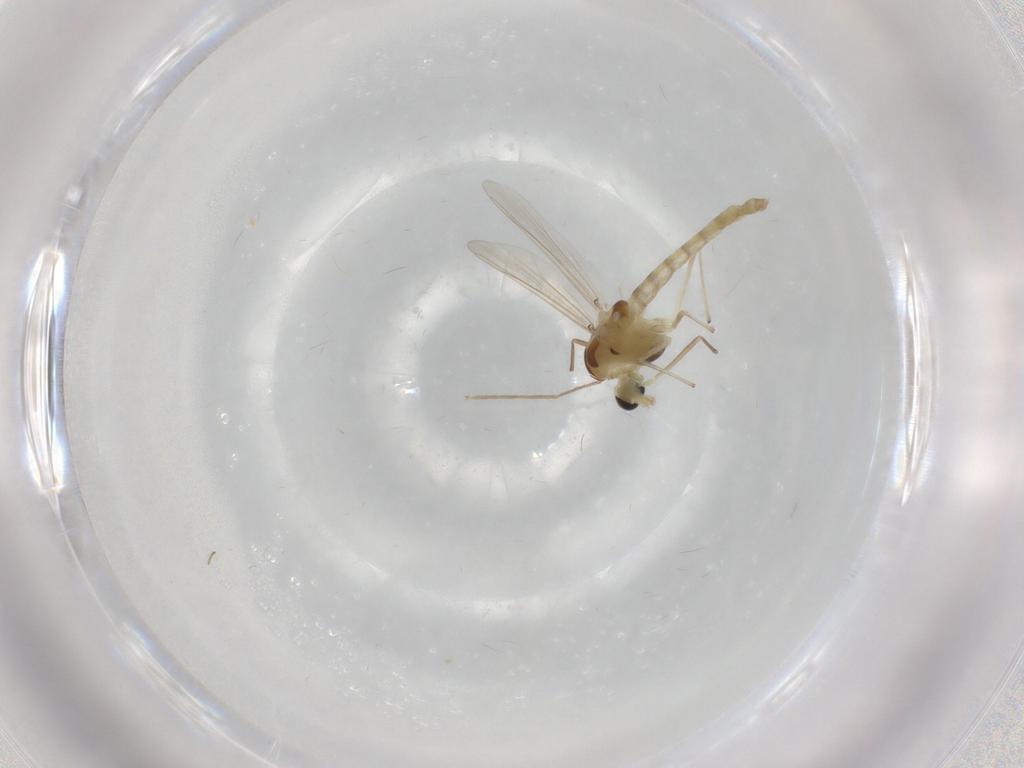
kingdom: Animalia
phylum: Arthropoda
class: Insecta
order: Diptera
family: Chironomidae
